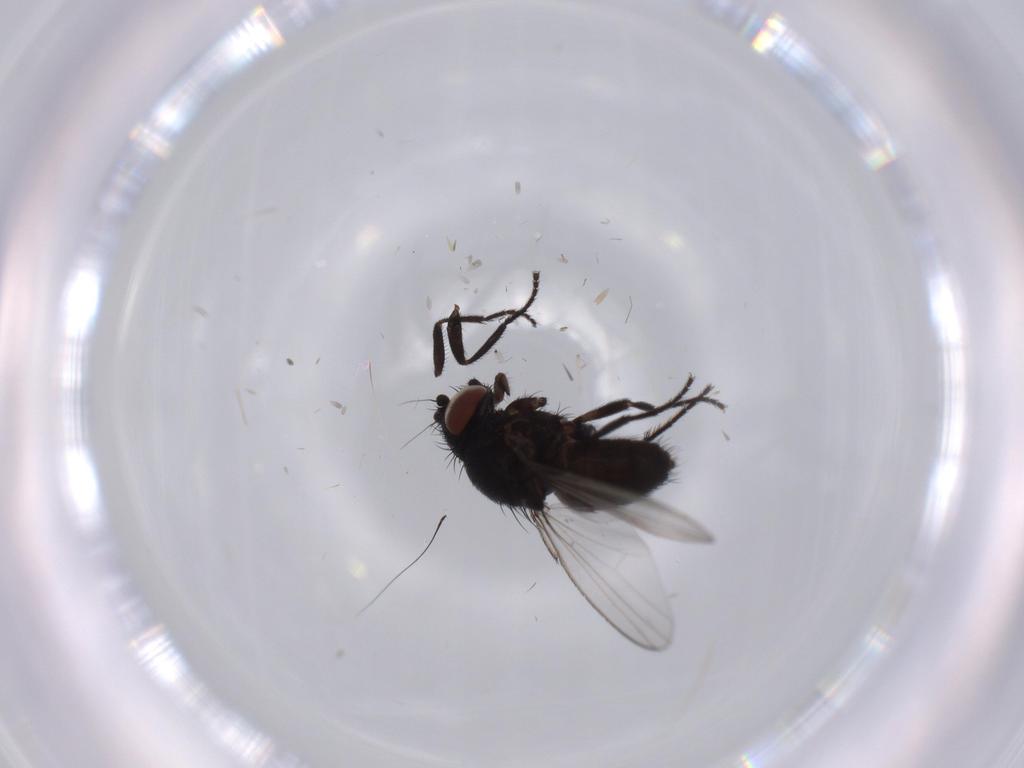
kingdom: Animalia
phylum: Arthropoda
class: Insecta
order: Diptera
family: Milichiidae
